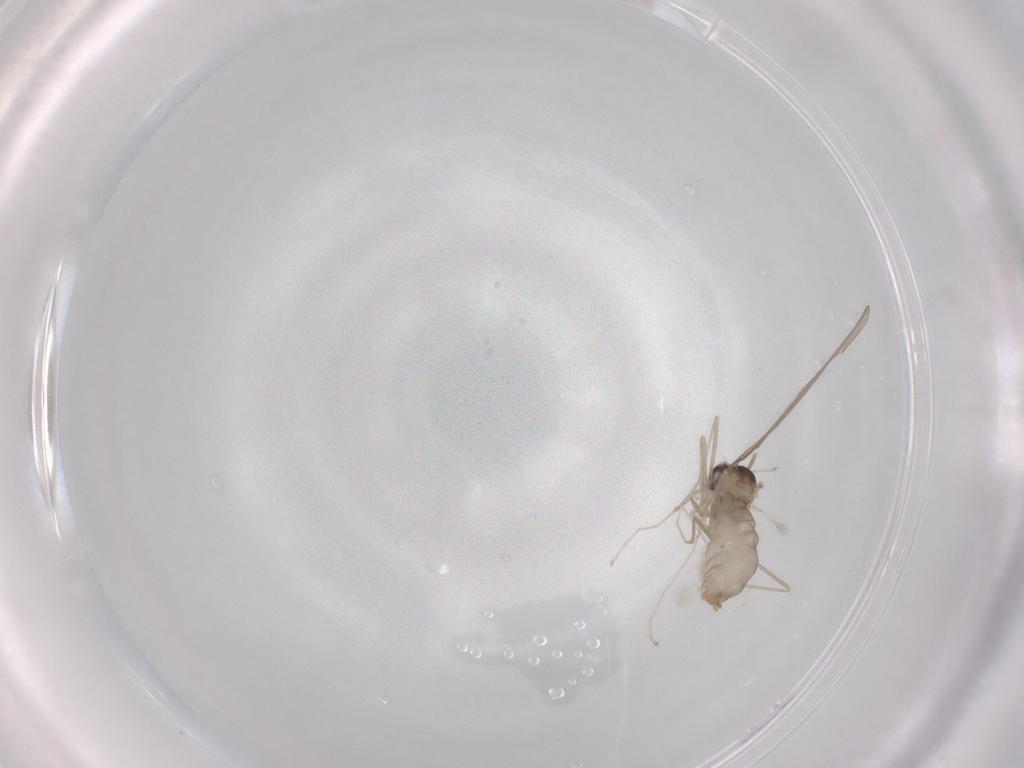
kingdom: Animalia
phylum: Arthropoda
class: Insecta
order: Diptera
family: Cecidomyiidae
